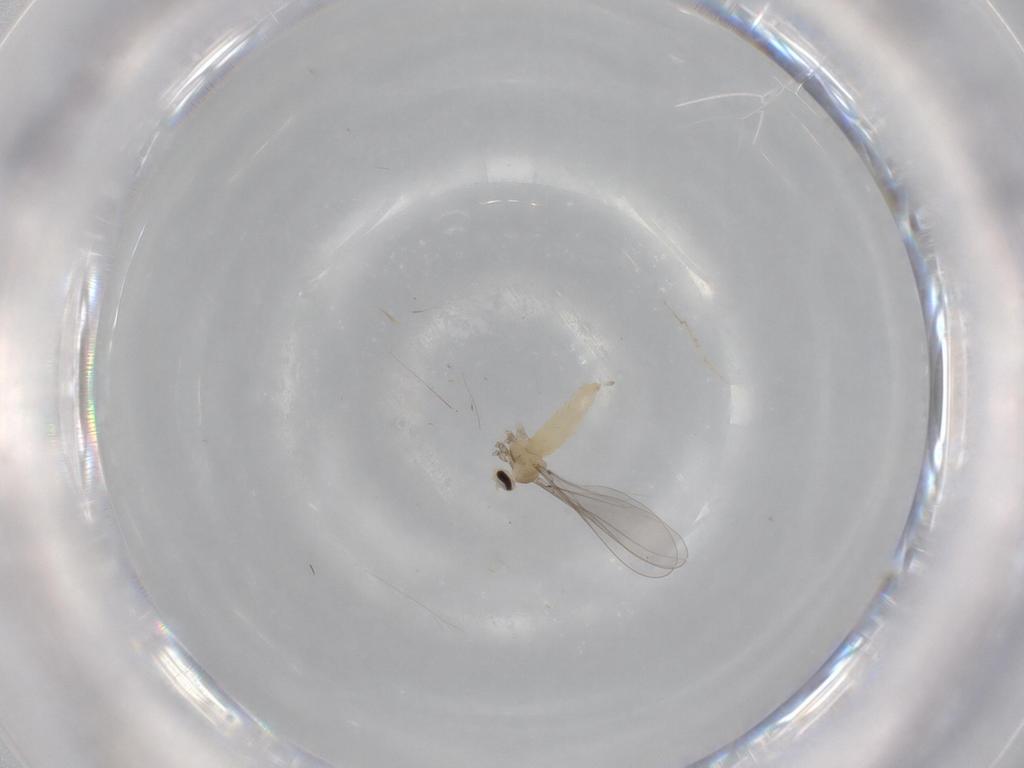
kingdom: Animalia
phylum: Arthropoda
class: Insecta
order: Diptera
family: Cecidomyiidae
